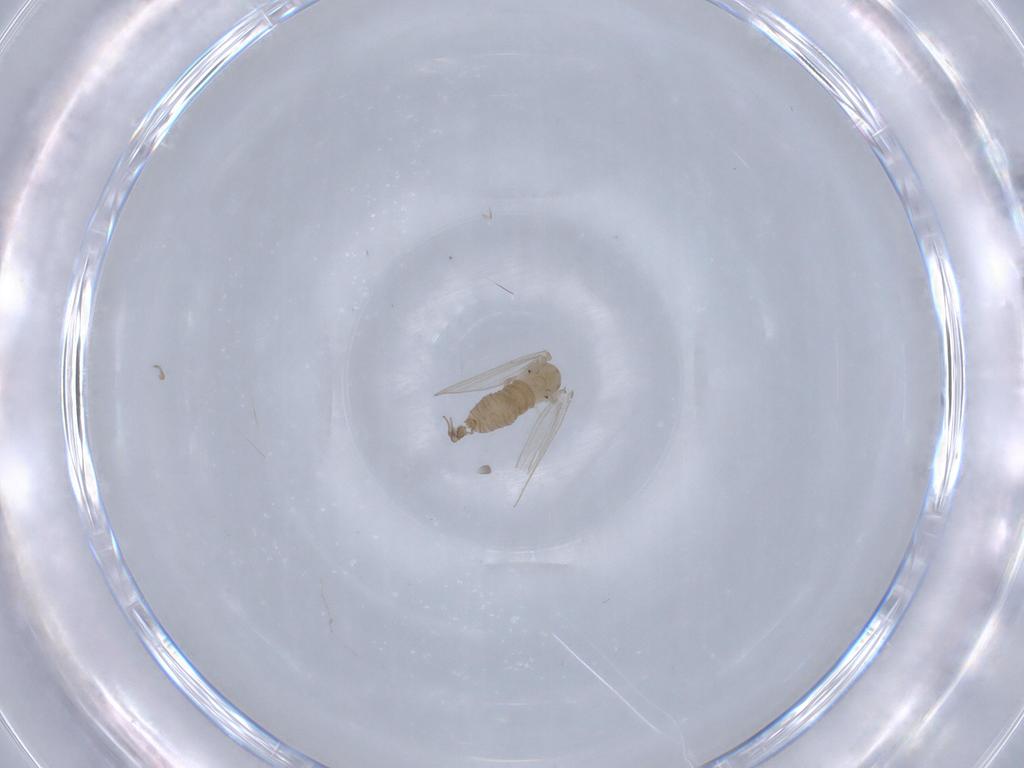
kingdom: Animalia
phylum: Arthropoda
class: Insecta
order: Diptera
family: Psychodidae
